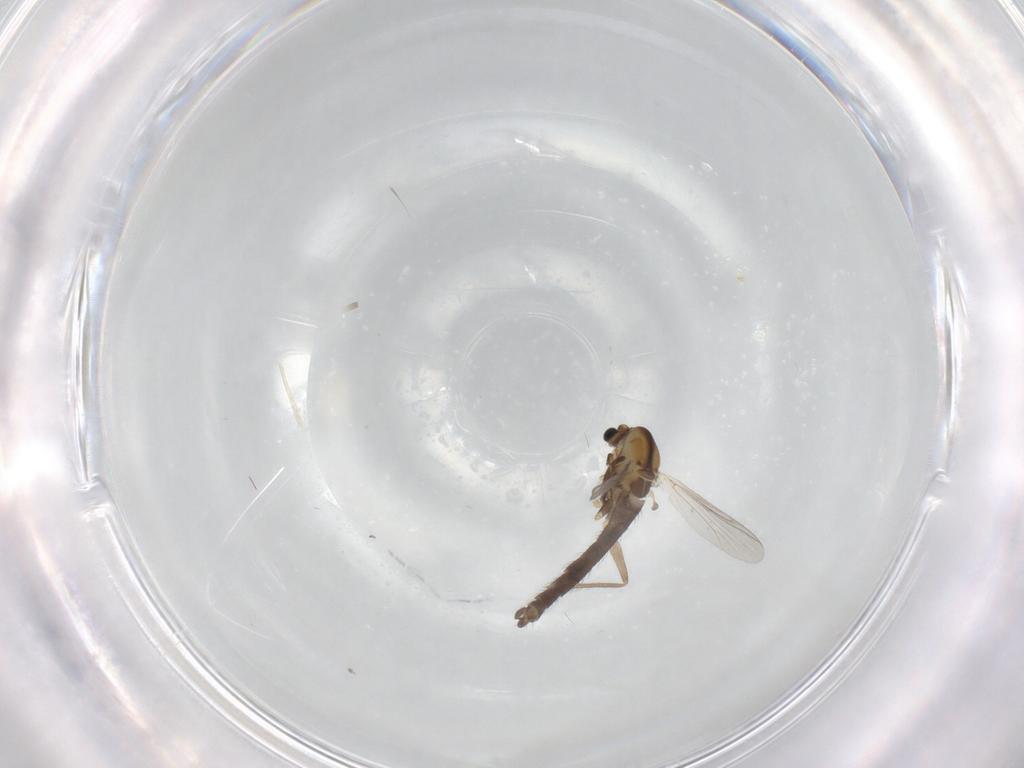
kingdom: Animalia
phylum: Arthropoda
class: Insecta
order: Diptera
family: Chironomidae
